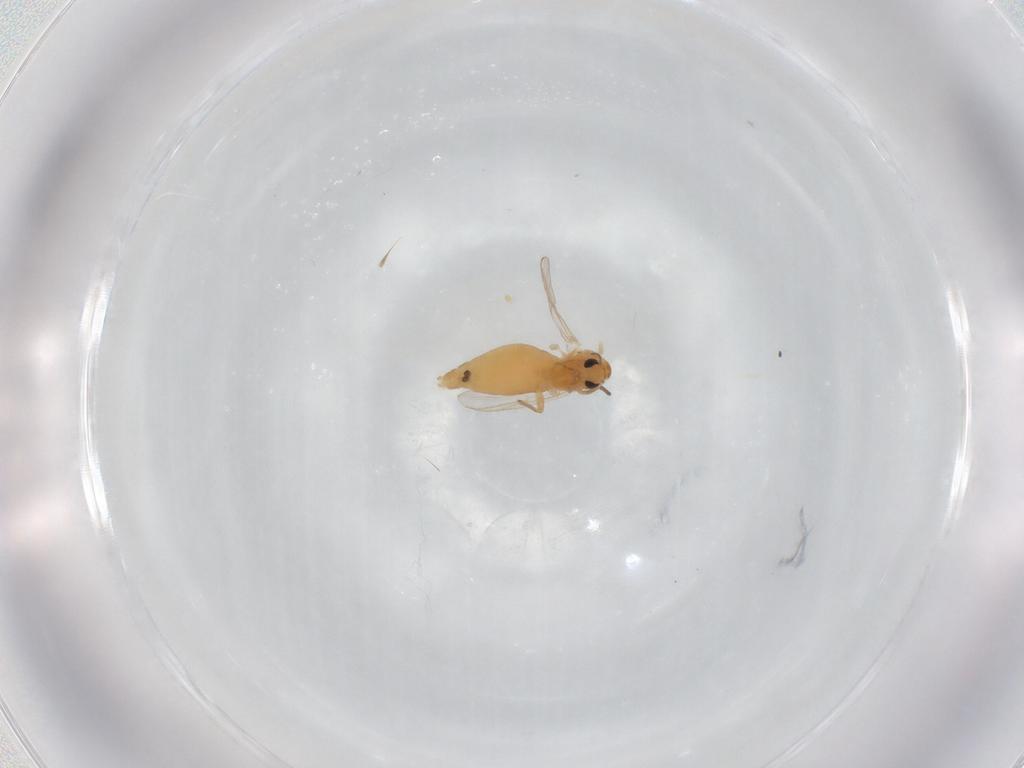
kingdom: Animalia
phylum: Arthropoda
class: Insecta
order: Diptera
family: Chironomidae
